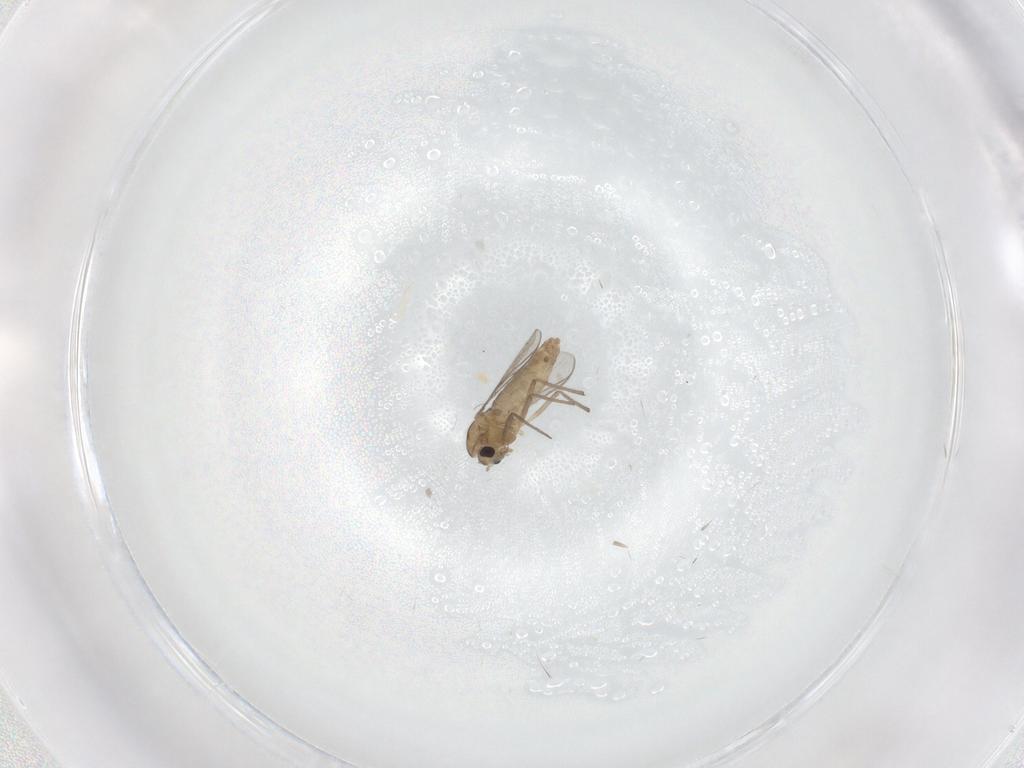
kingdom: Animalia
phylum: Arthropoda
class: Insecta
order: Diptera
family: Chironomidae
